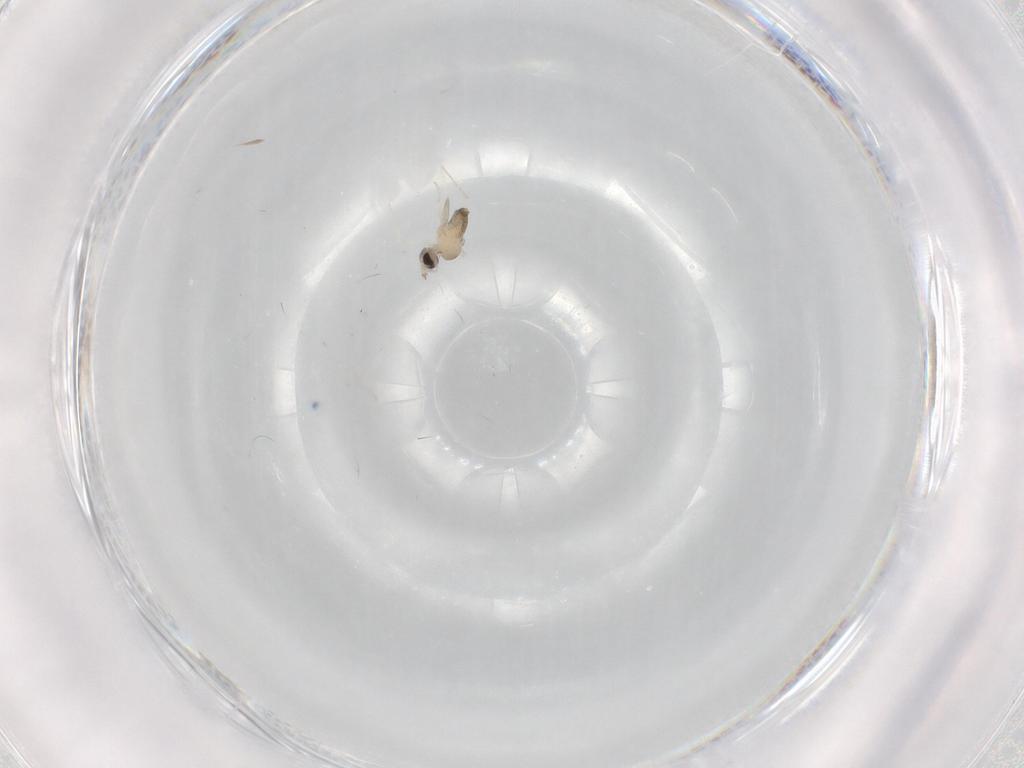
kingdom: Animalia
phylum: Arthropoda
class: Insecta
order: Diptera
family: Cecidomyiidae
